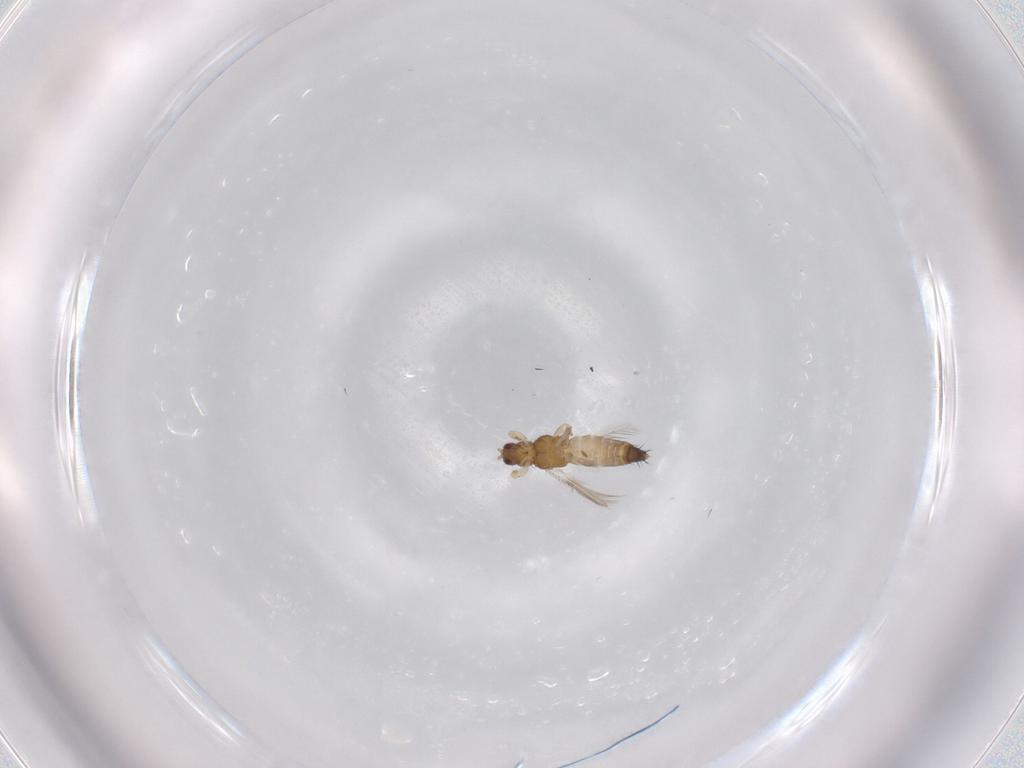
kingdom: Animalia
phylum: Arthropoda
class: Insecta
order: Thysanoptera
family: Thripidae
